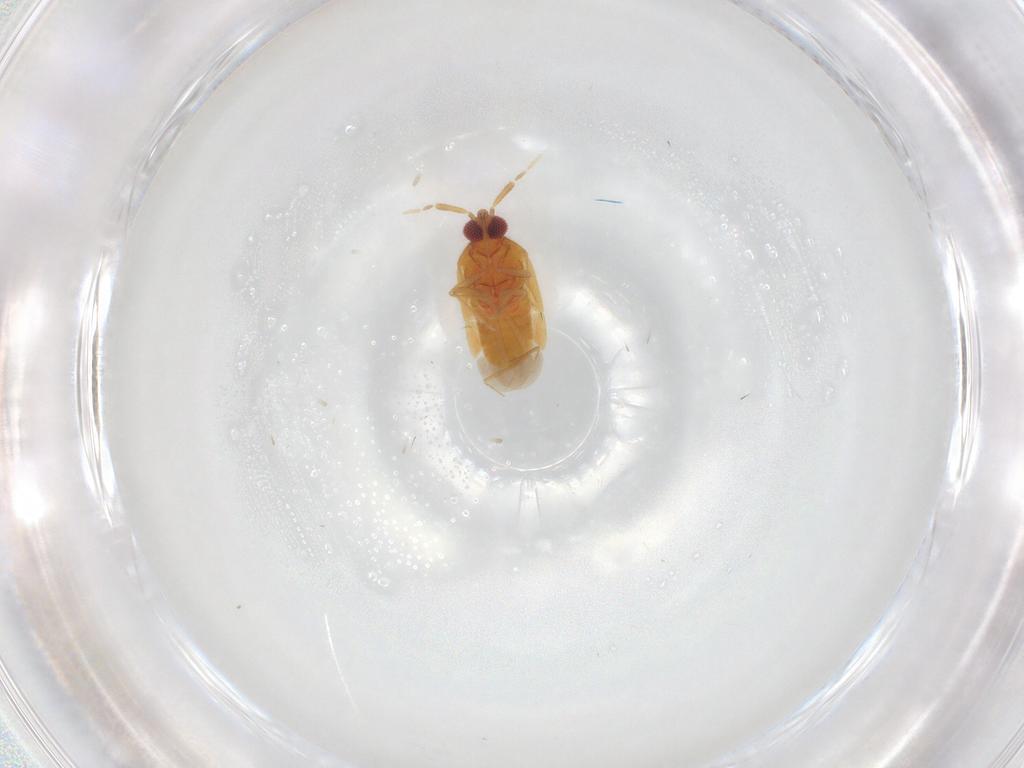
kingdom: Animalia
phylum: Arthropoda
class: Insecta
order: Hemiptera
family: Anthocoridae
